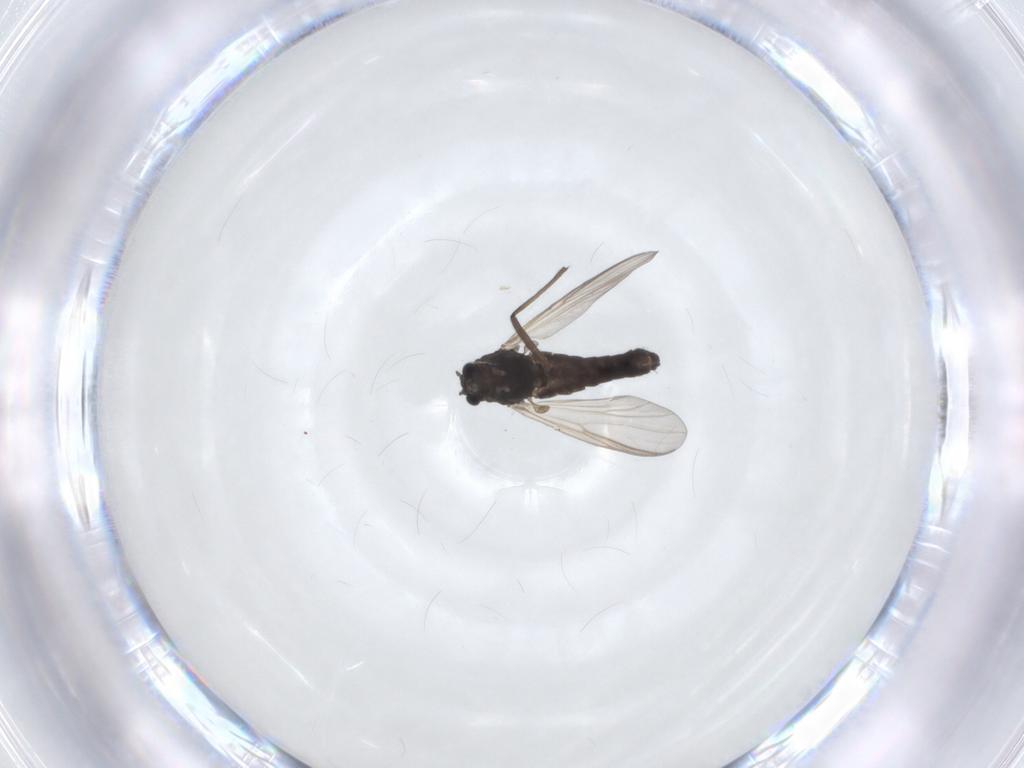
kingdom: Animalia
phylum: Arthropoda
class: Insecta
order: Diptera
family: Chironomidae
